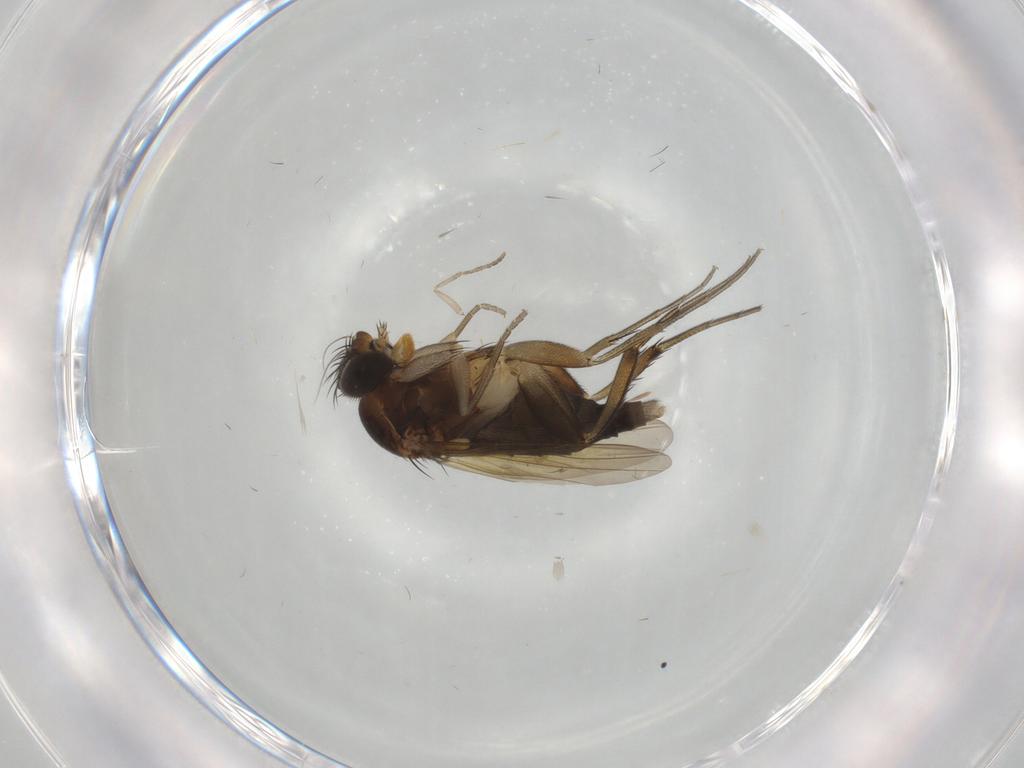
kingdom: Animalia
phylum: Arthropoda
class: Insecta
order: Diptera
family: Phoridae
